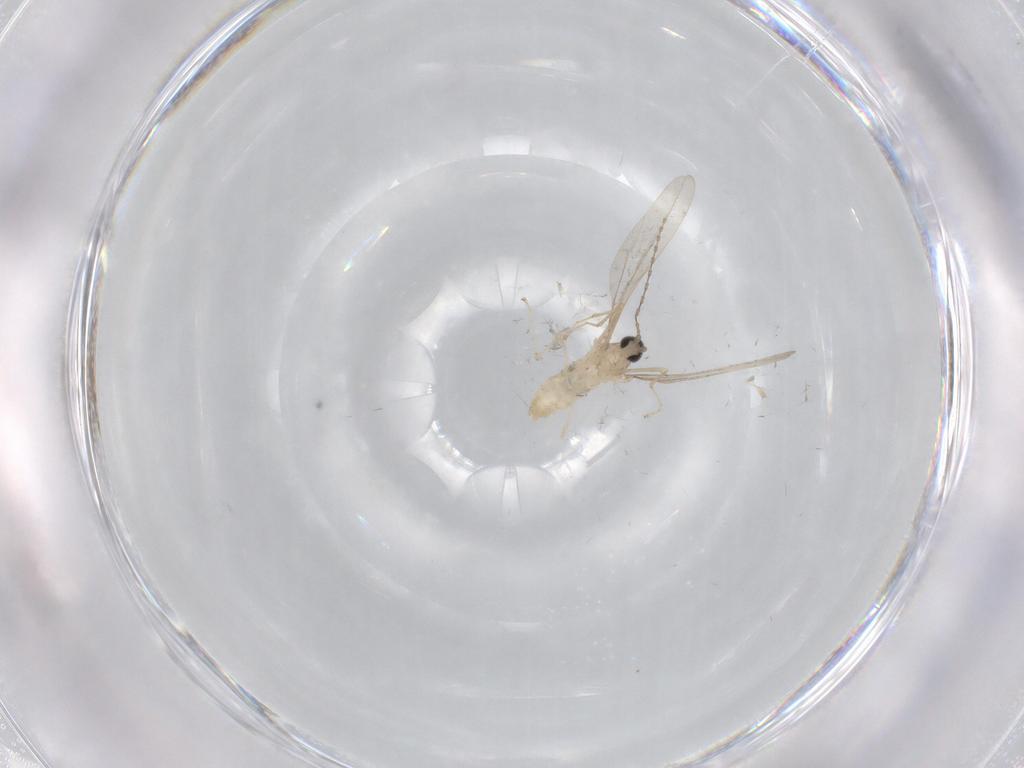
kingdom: Animalia
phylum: Arthropoda
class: Insecta
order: Diptera
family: Cecidomyiidae
